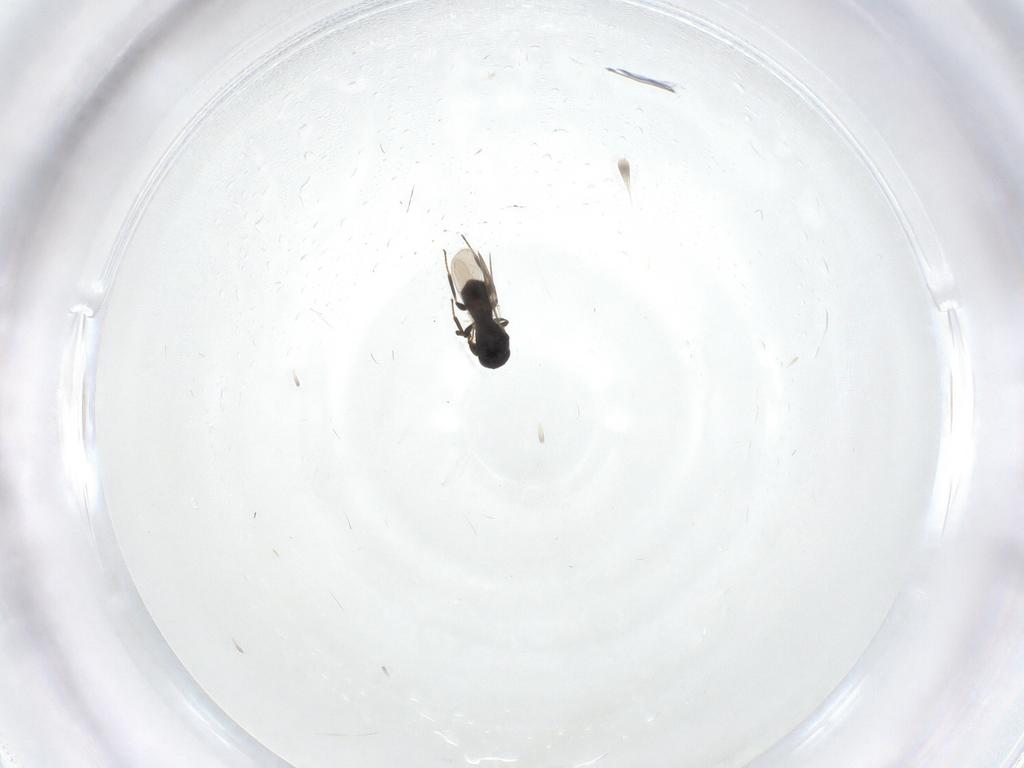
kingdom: Animalia
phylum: Arthropoda
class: Insecta
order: Hymenoptera
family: Platygastridae
